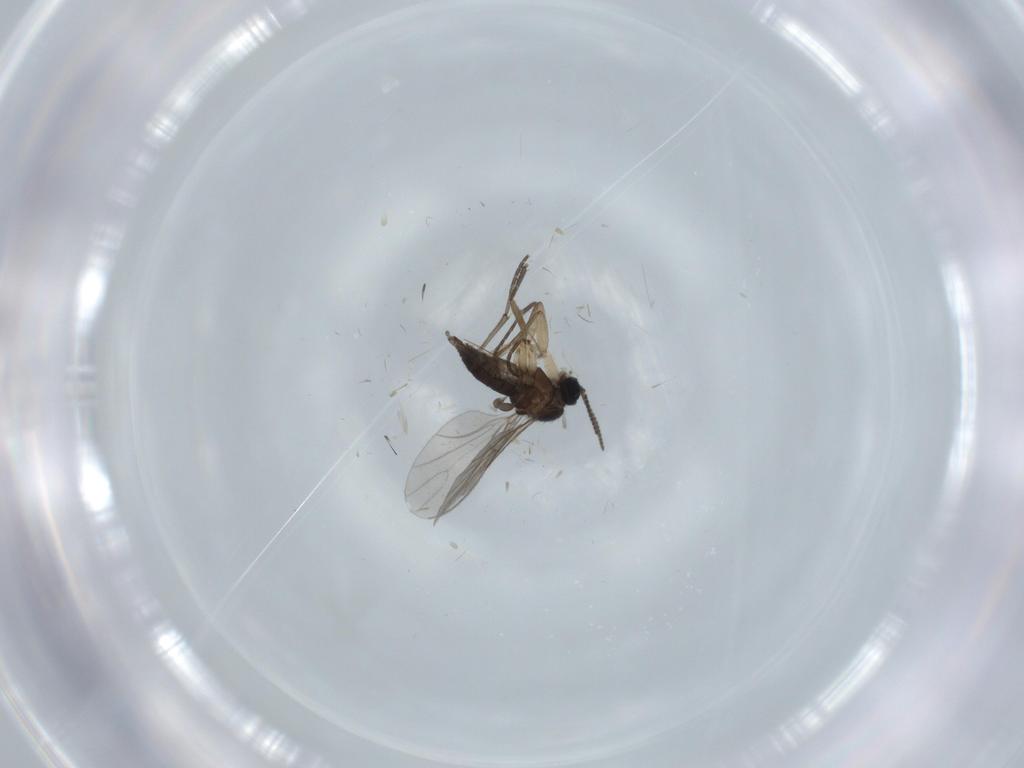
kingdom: Animalia
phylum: Arthropoda
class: Insecta
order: Diptera
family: Sciaridae
